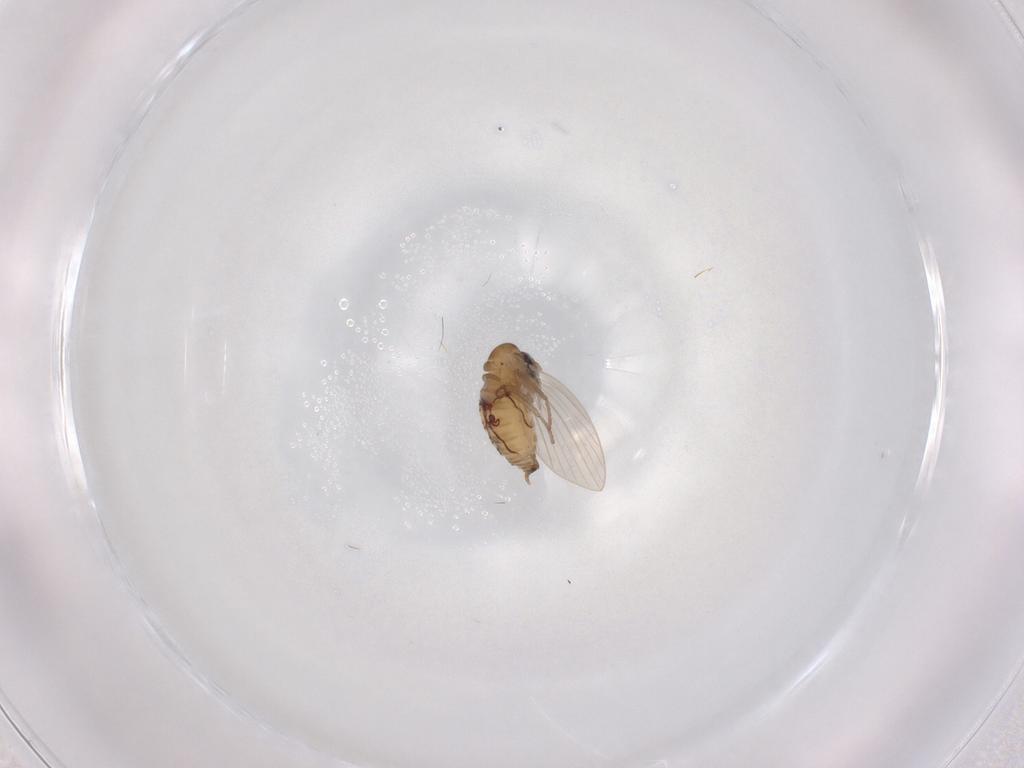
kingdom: Animalia
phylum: Arthropoda
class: Insecta
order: Diptera
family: Psychodidae
